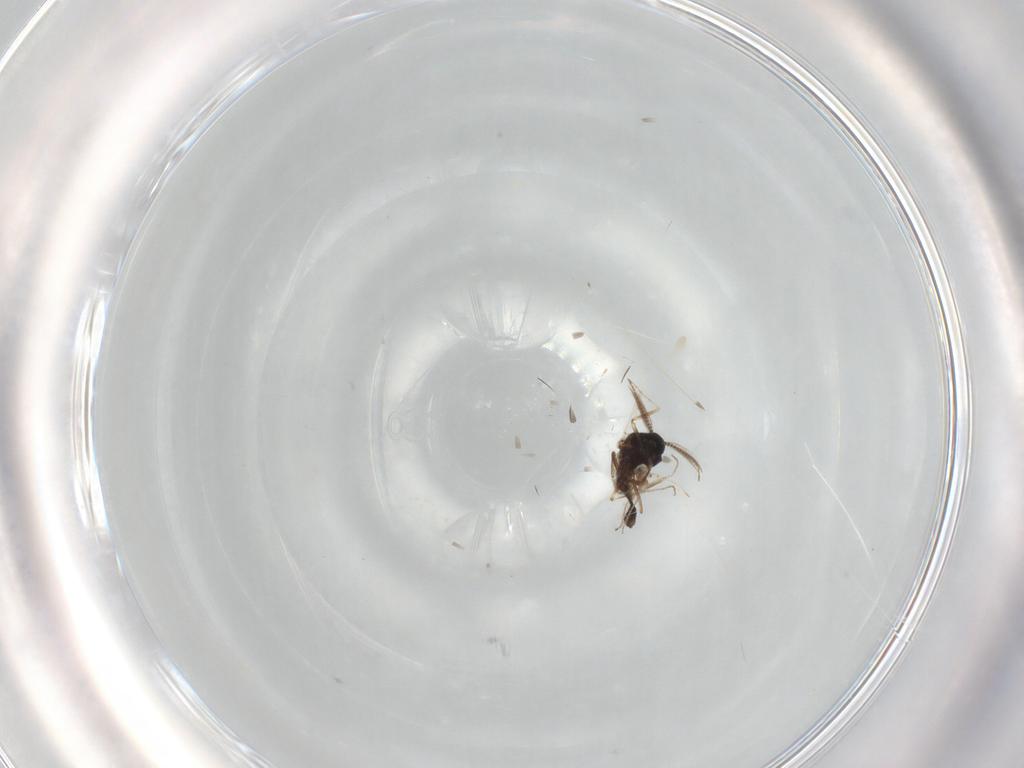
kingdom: Animalia
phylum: Arthropoda
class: Insecta
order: Diptera
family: Ceratopogonidae
